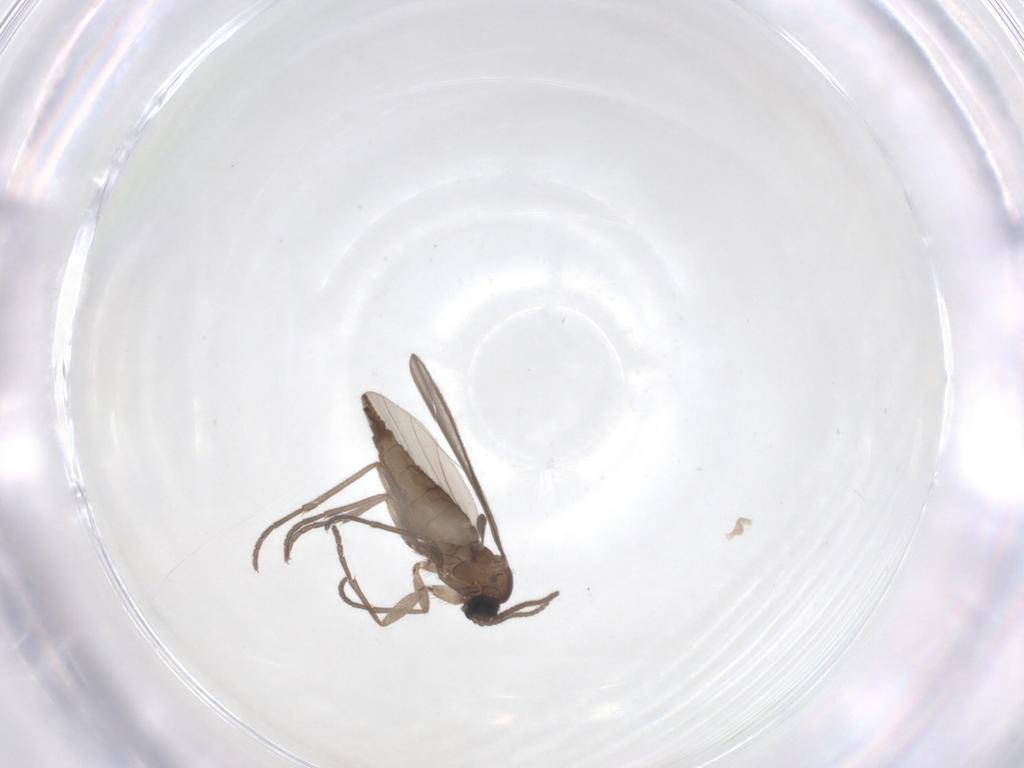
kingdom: Animalia
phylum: Arthropoda
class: Insecta
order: Diptera
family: Sciaridae
